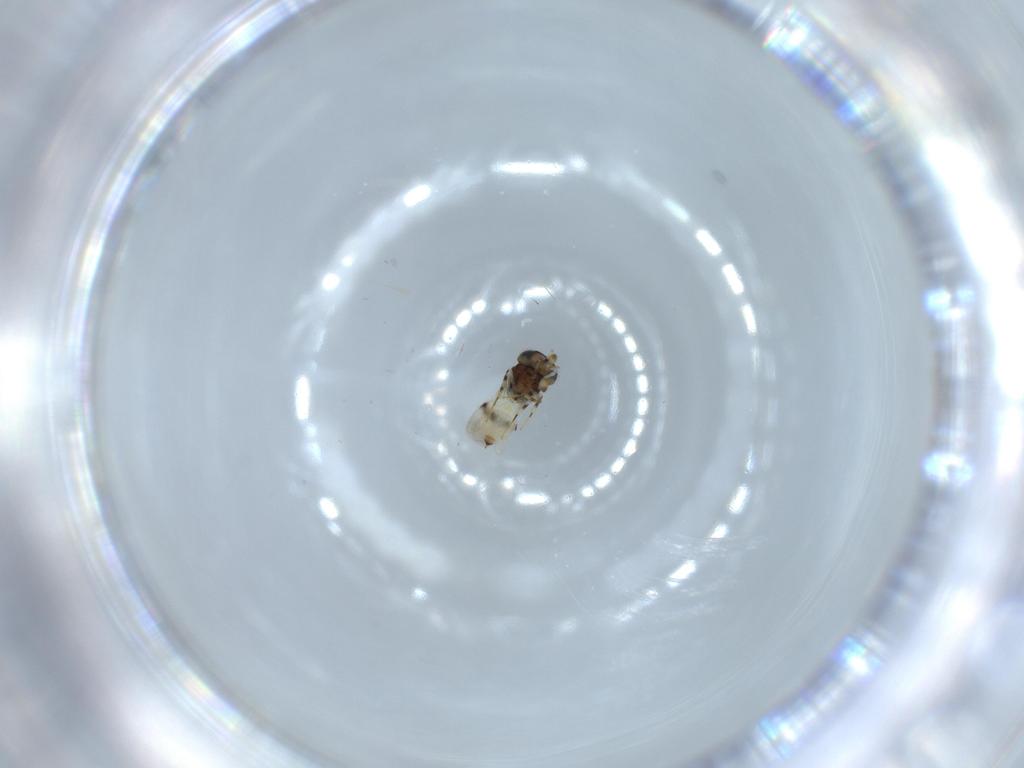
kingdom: Animalia
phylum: Arthropoda
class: Insecta
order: Hymenoptera
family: Scelionidae
